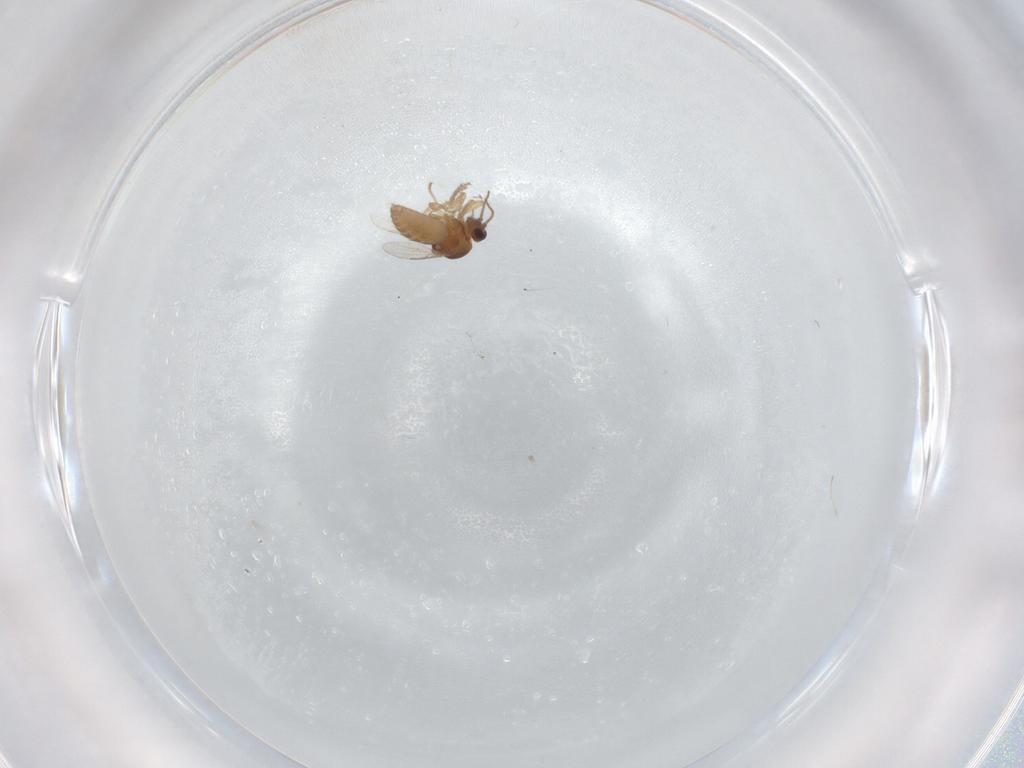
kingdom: Animalia
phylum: Arthropoda
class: Insecta
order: Diptera
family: Ceratopogonidae
